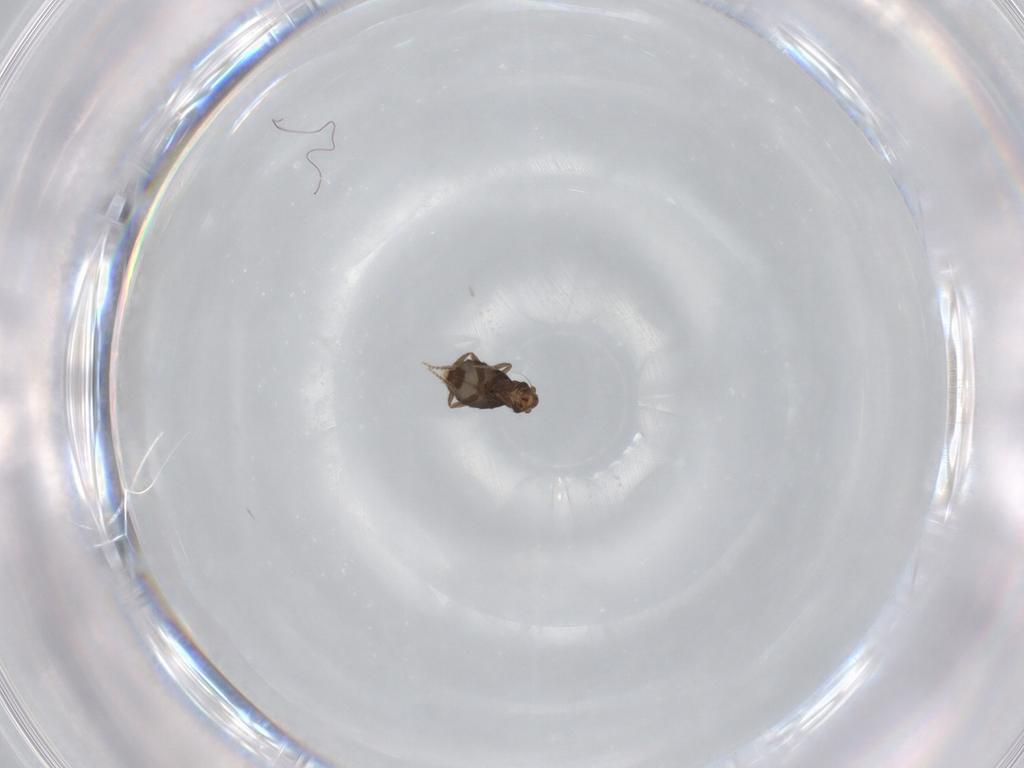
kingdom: Animalia
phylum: Arthropoda
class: Insecta
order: Diptera
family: Phoridae
